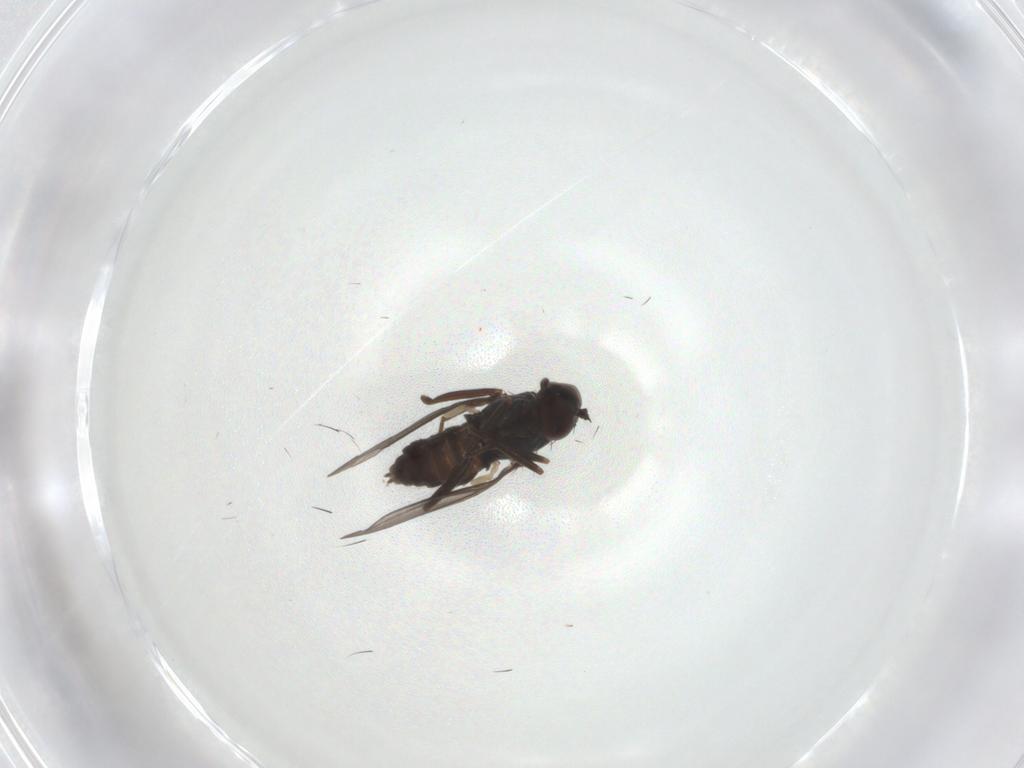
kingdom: Animalia
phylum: Arthropoda
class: Insecta
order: Diptera
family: Dolichopodidae
